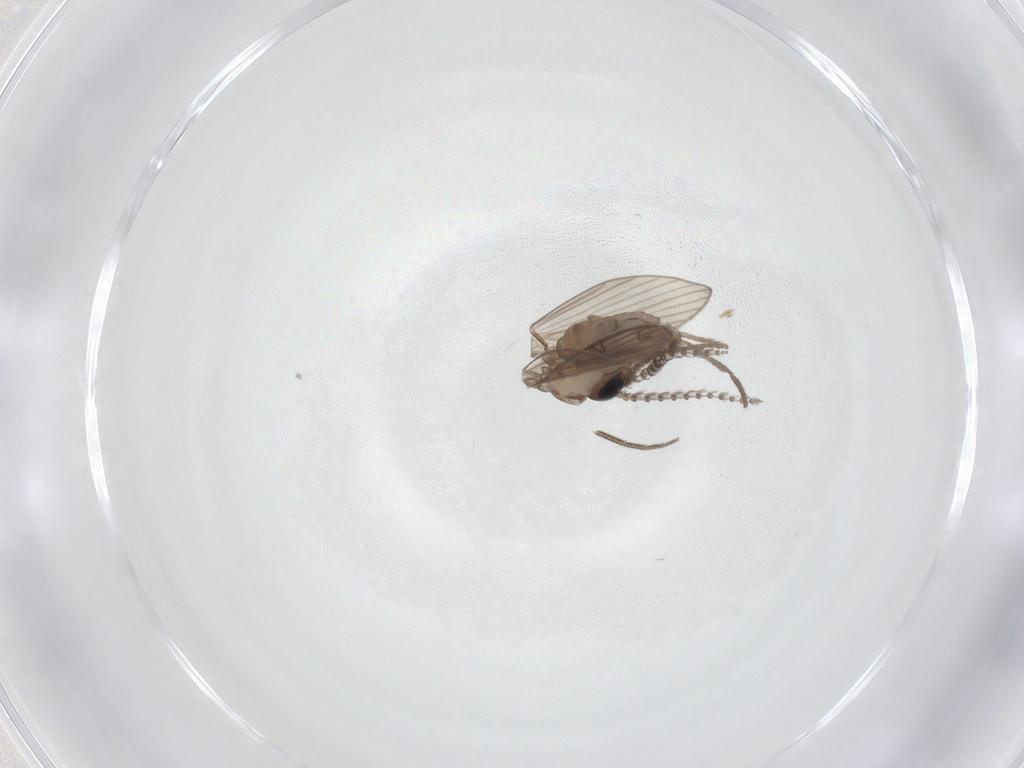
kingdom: Animalia
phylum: Arthropoda
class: Insecta
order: Diptera
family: Psychodidae
